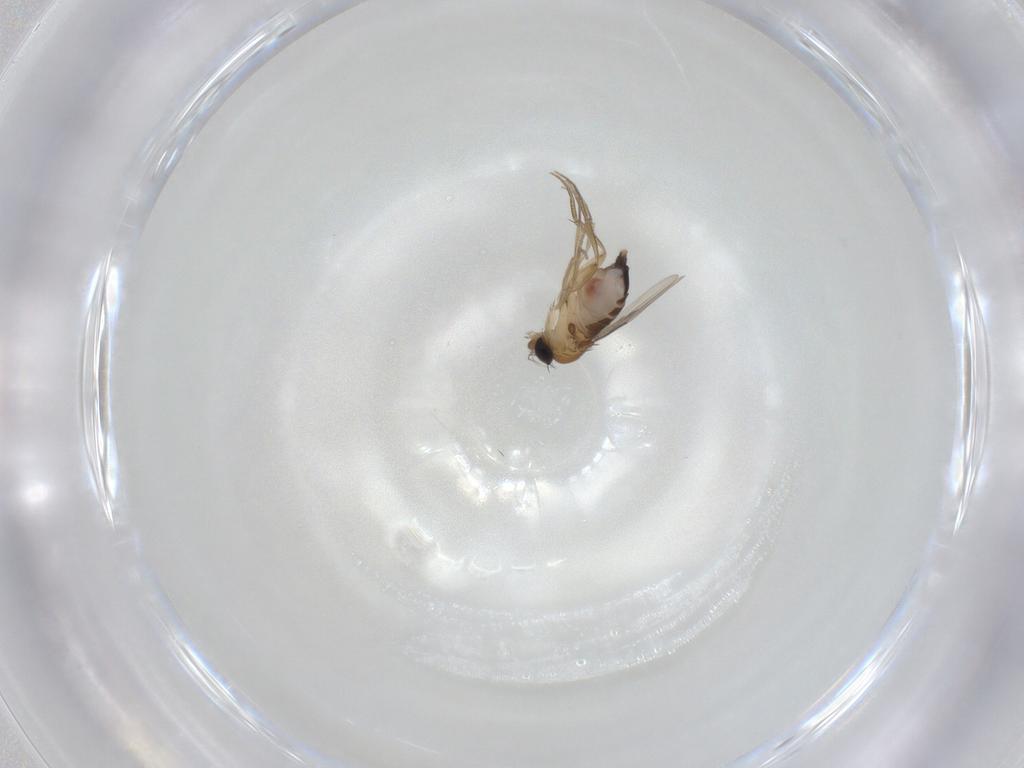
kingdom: Animalia
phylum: Arthropoda
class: Insecta
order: Diptera
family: Cecidomyiidae
